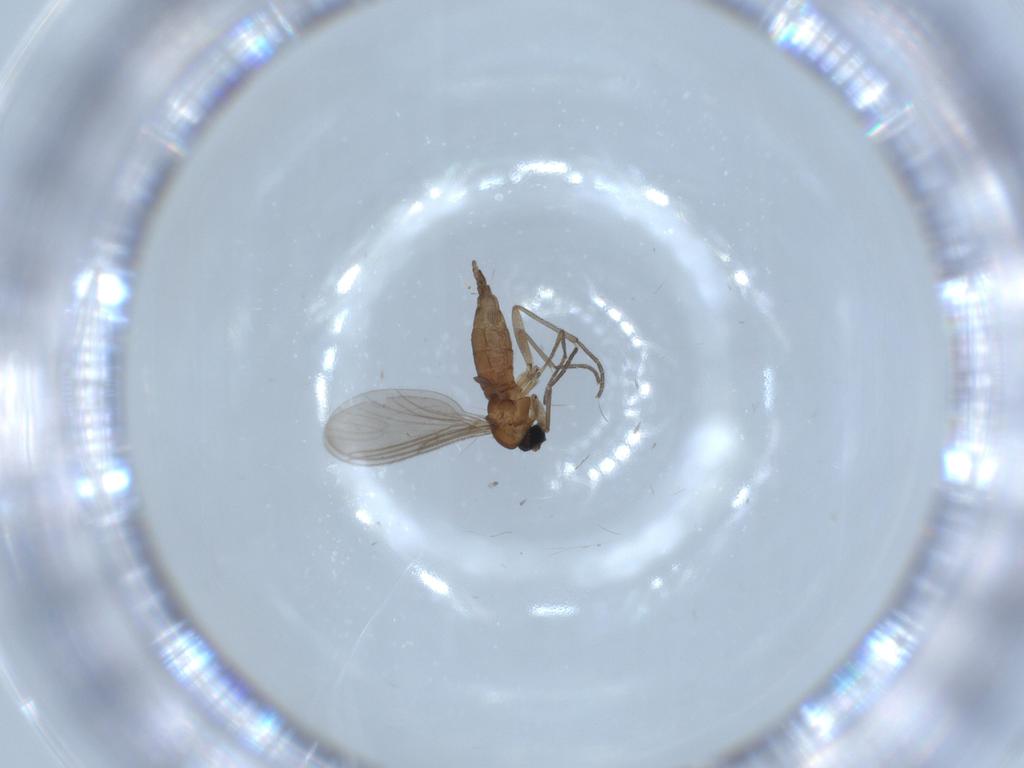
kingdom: Animalia
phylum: Arthropoda
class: Insecta
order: Diptera
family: Sciaridae
